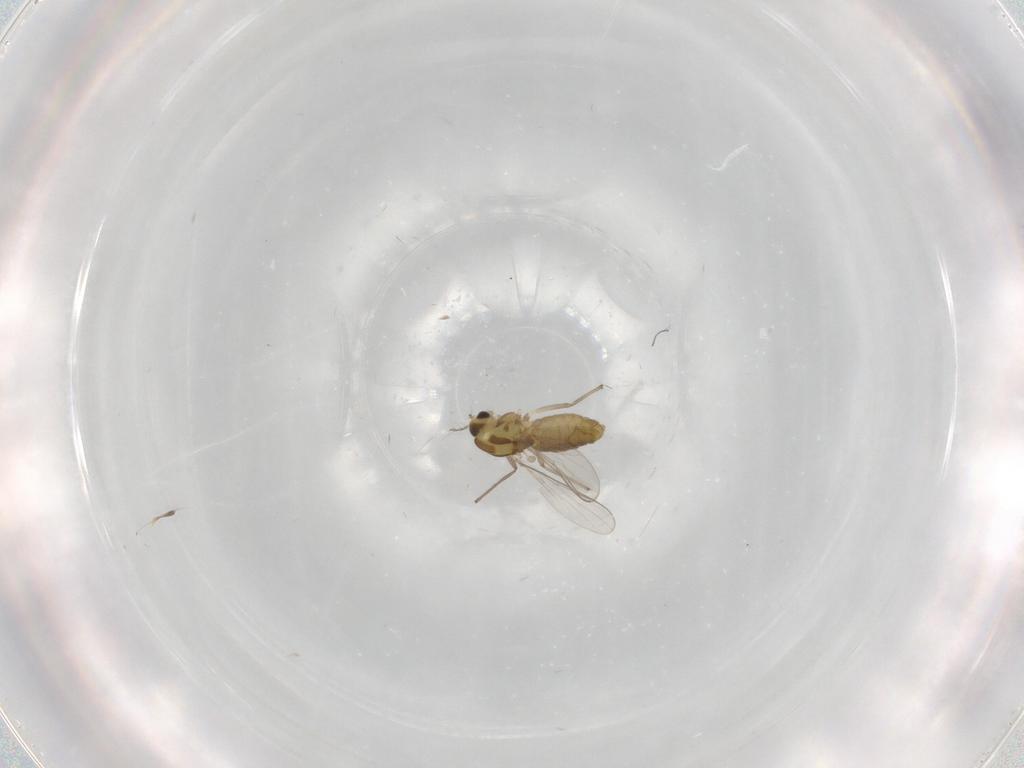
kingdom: Animalia
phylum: Arthropoda
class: Insecta
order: Diptera
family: Chironomidae
